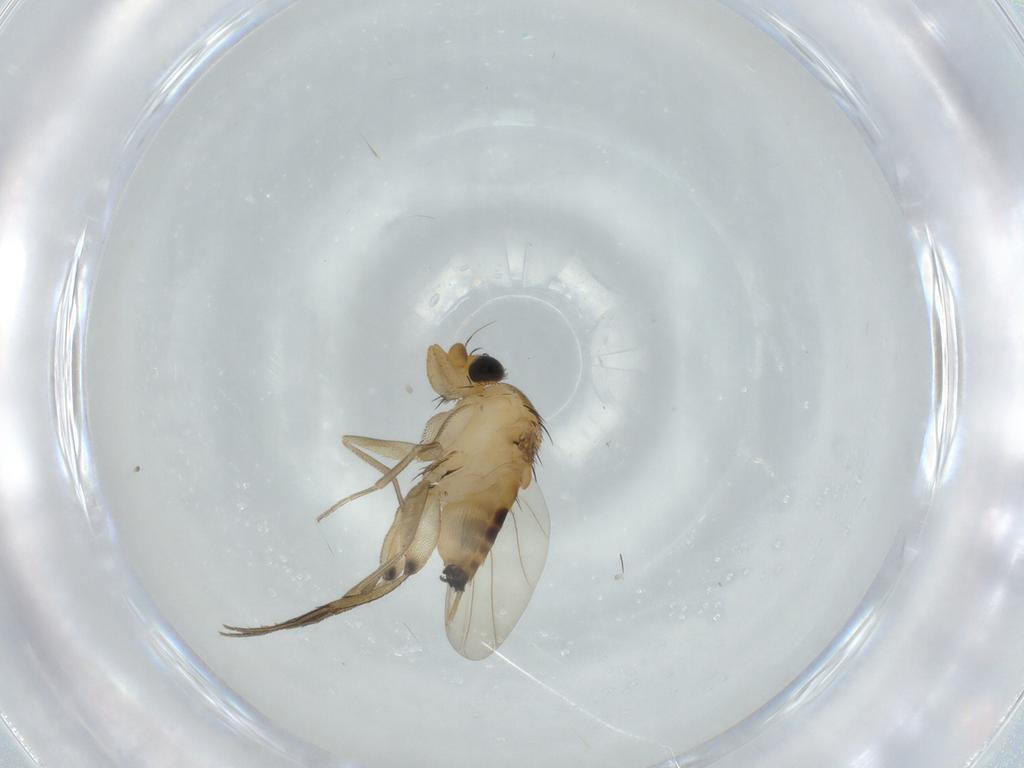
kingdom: Animalia
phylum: Arthropoda
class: Insecta
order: Diptera
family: Phoridae
